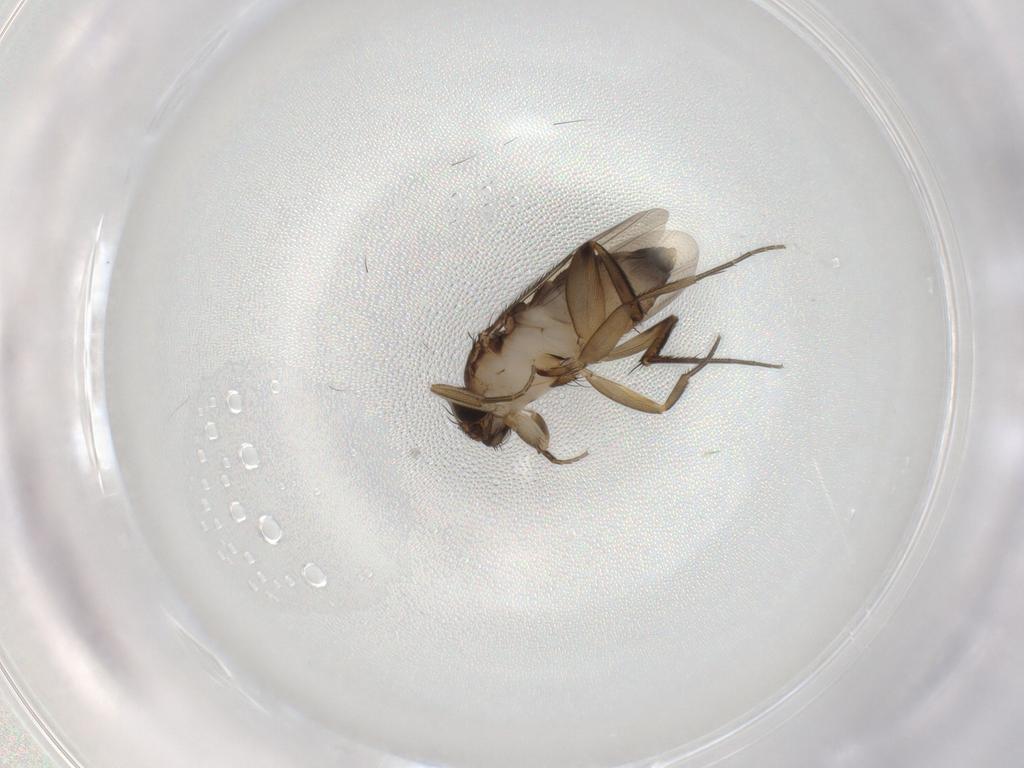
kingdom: Animalia
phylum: Arthropoda
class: Insecta
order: Diptera
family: Phoridae
